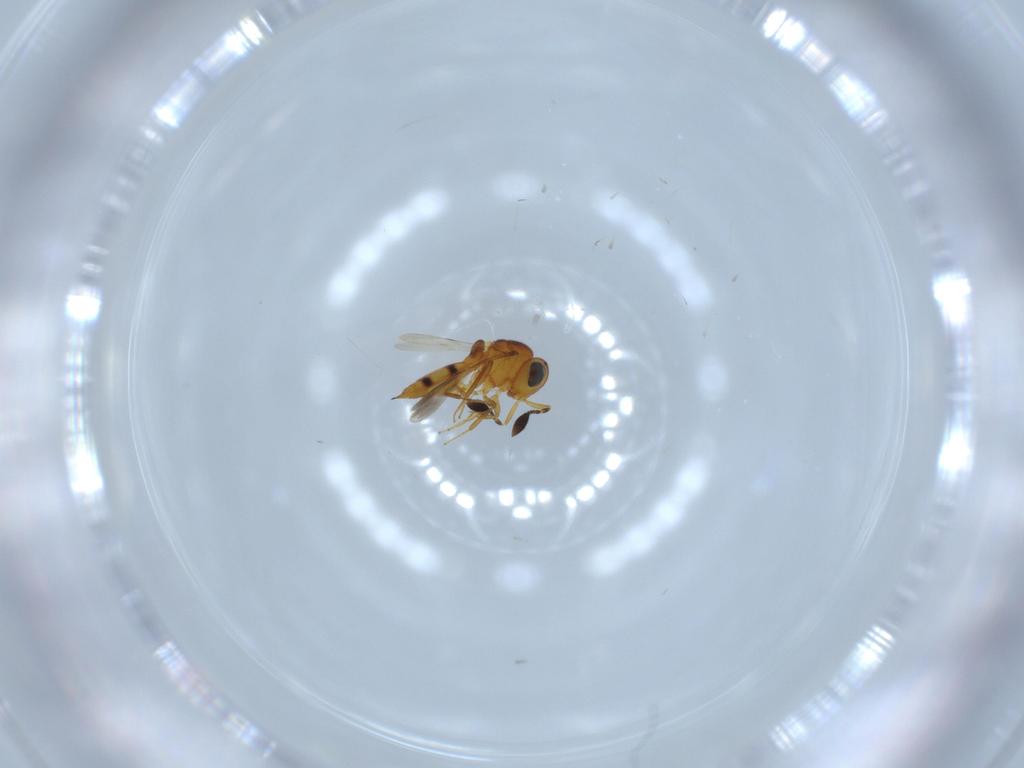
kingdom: Animalia
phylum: Arthropoda
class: Insecta
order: Hymenoptera
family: Scelionidae
